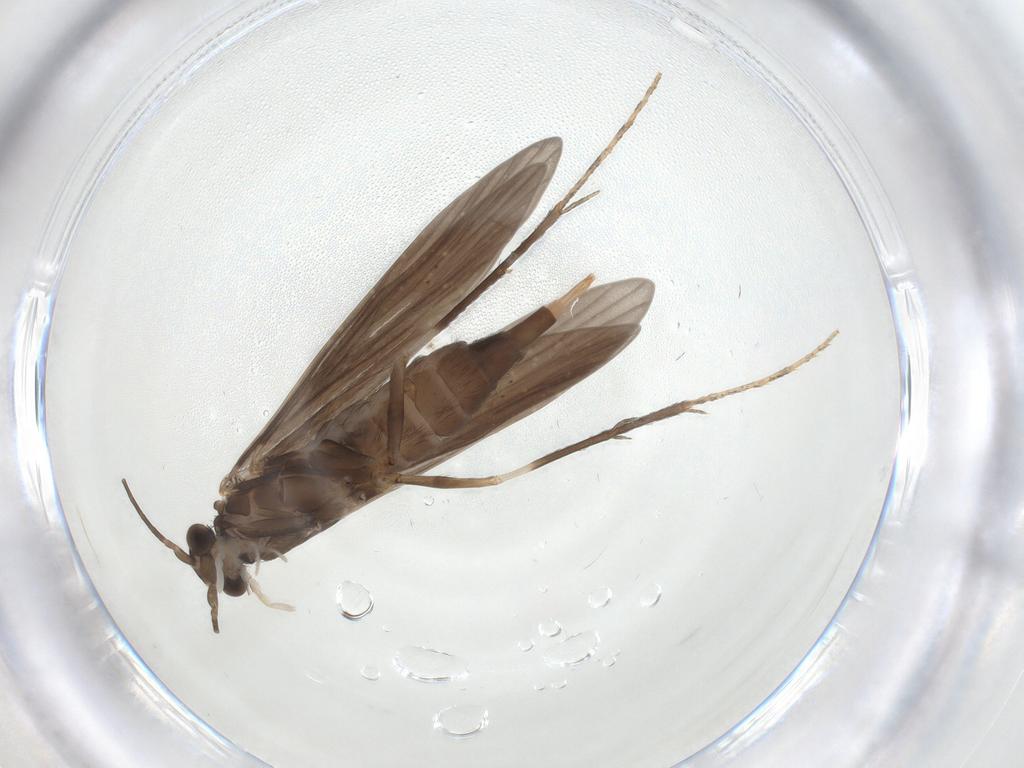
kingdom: Animalia
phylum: Arthropoda
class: Insecta
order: Trichoptera
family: Xiphocentronidae
